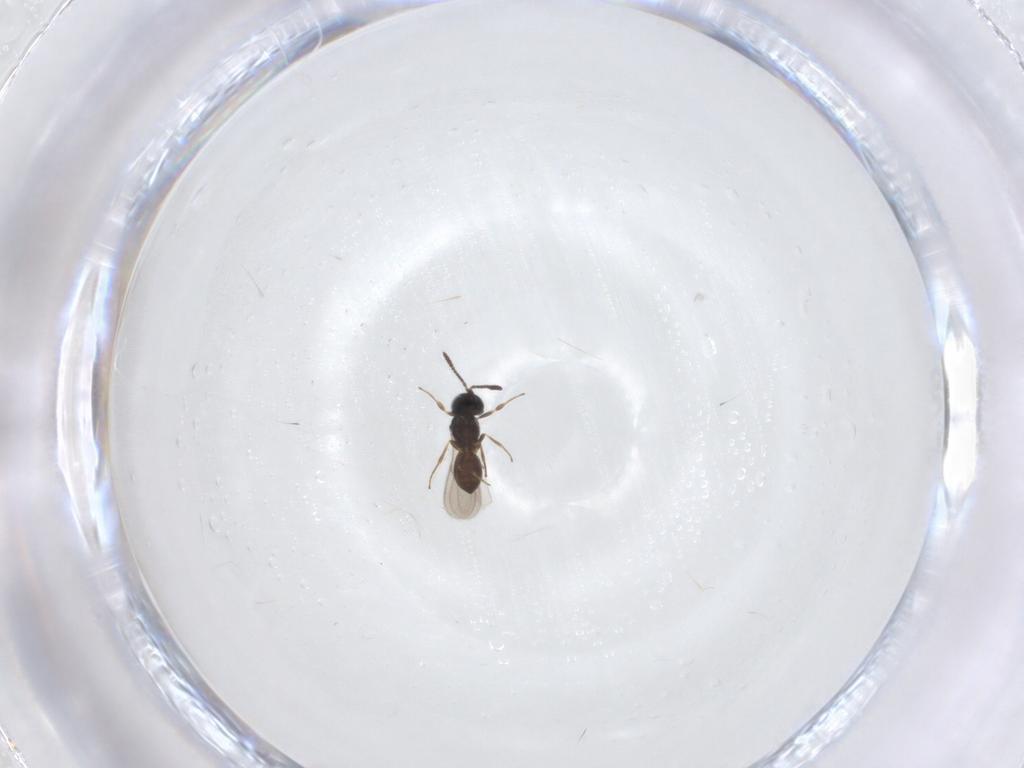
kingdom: Animalia
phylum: Arthropoda
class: Insecta
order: Hymenoptera
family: Scelionidae
